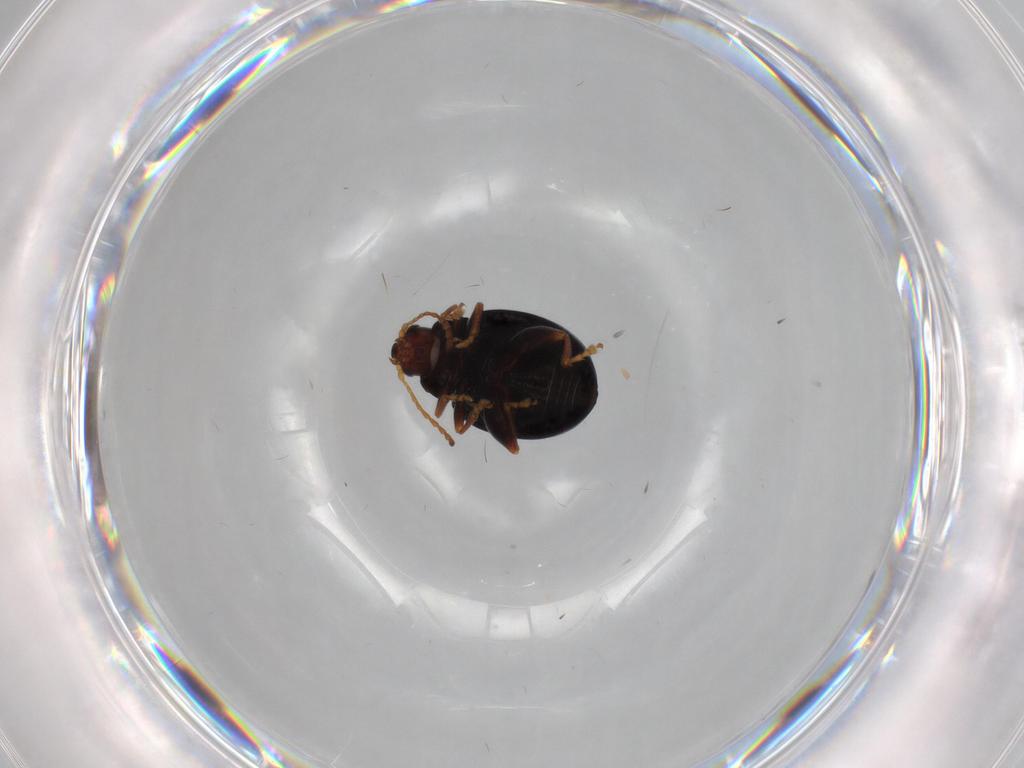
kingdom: Animalia
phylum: Arthropoda
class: Insecta
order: Coleoptera
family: Chrysomelidae
